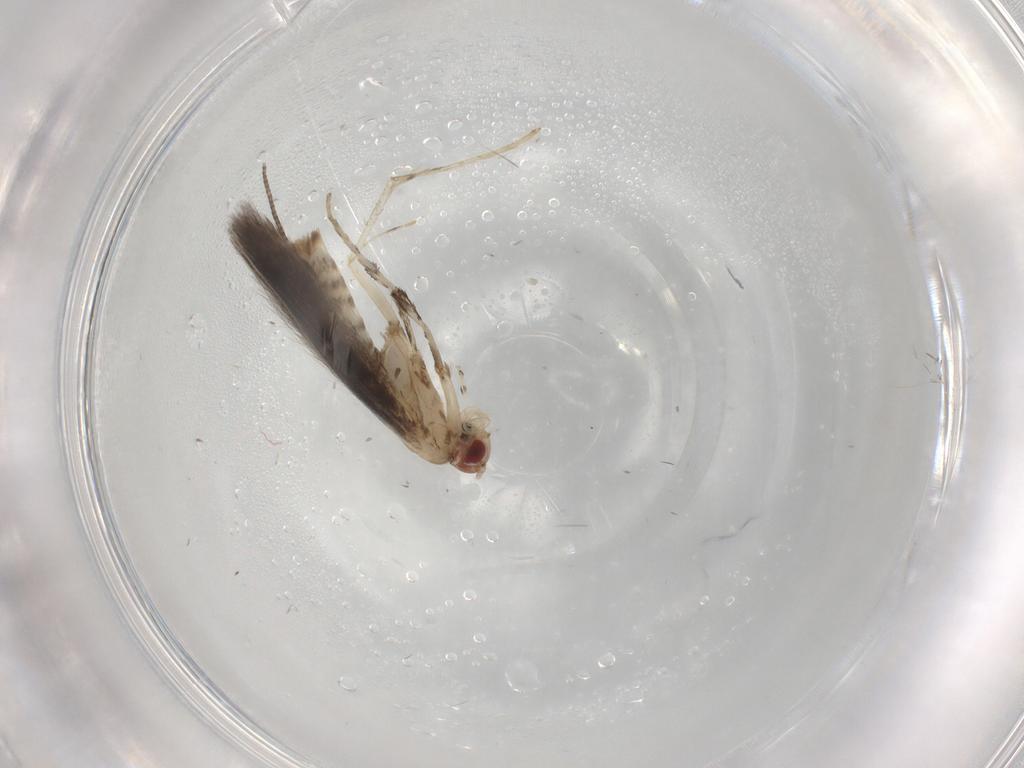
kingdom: Animalia
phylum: Arthropoda
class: Insecta
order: Lepidoptera
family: Gracillariidae
